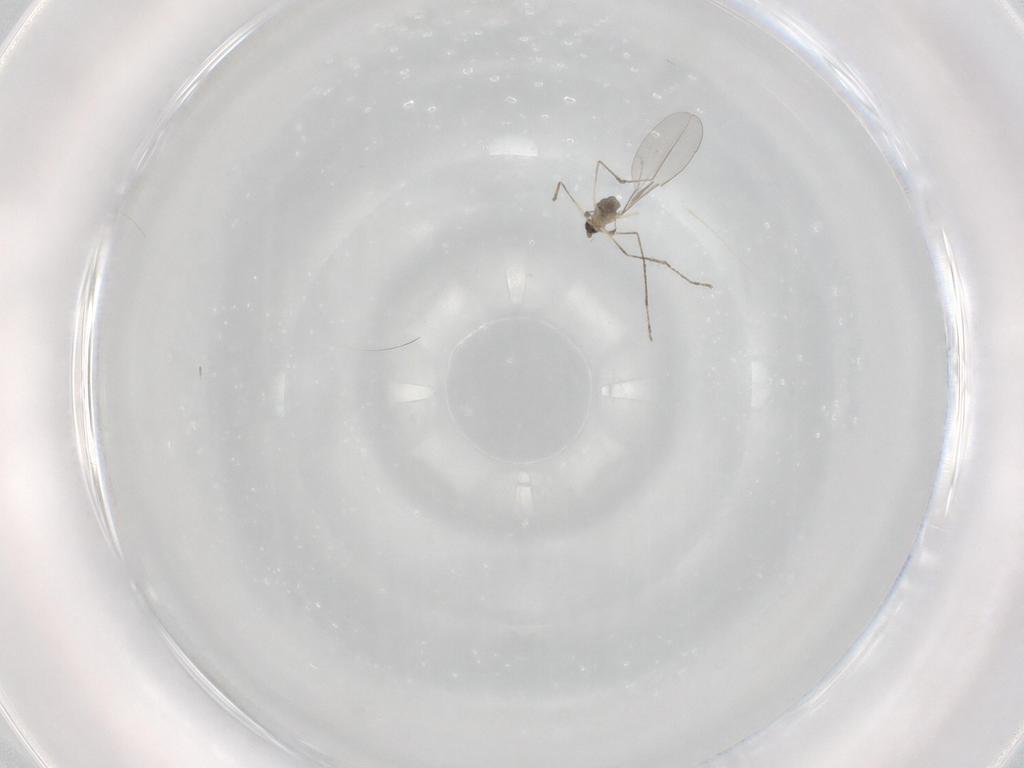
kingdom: Animalia
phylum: Arthropoda
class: Insecta
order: Diptera
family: Cecidomyiidae
